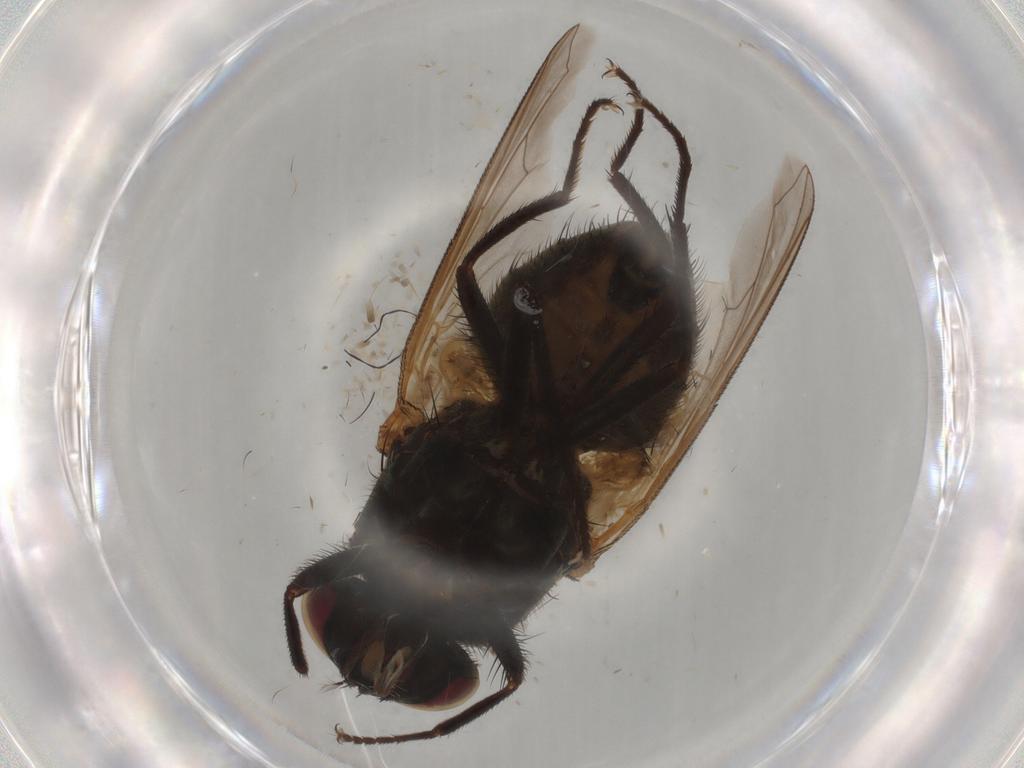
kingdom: Animalia
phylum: Arthropoda
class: Insecta
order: Diptera
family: Muscidae
